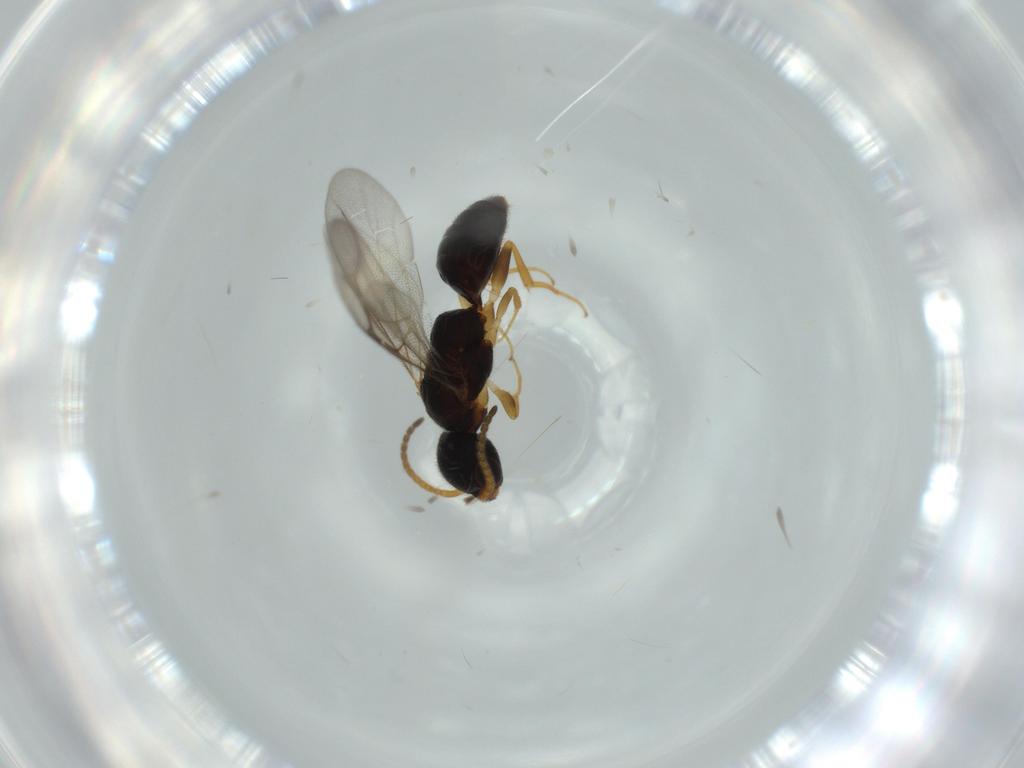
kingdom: Animalia
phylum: Arthropoda
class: Insecta
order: Hymenoptera
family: Bethylidae
